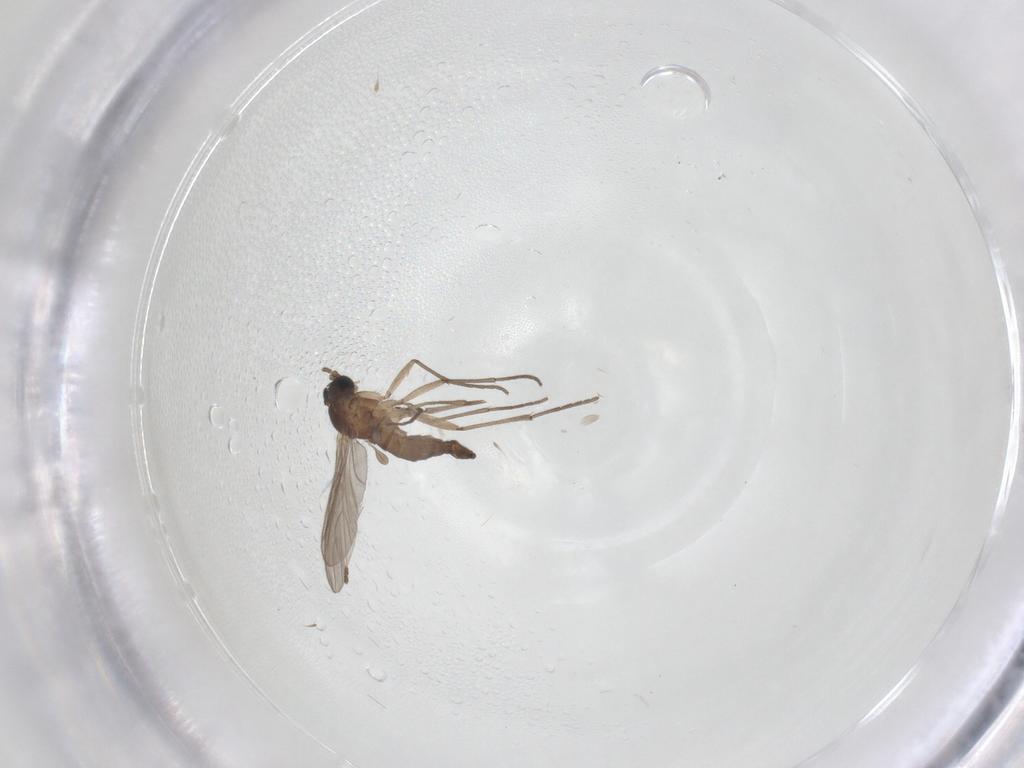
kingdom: Animalia
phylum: Arthropoda
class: Insecta
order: Diptera
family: Sciaridae
